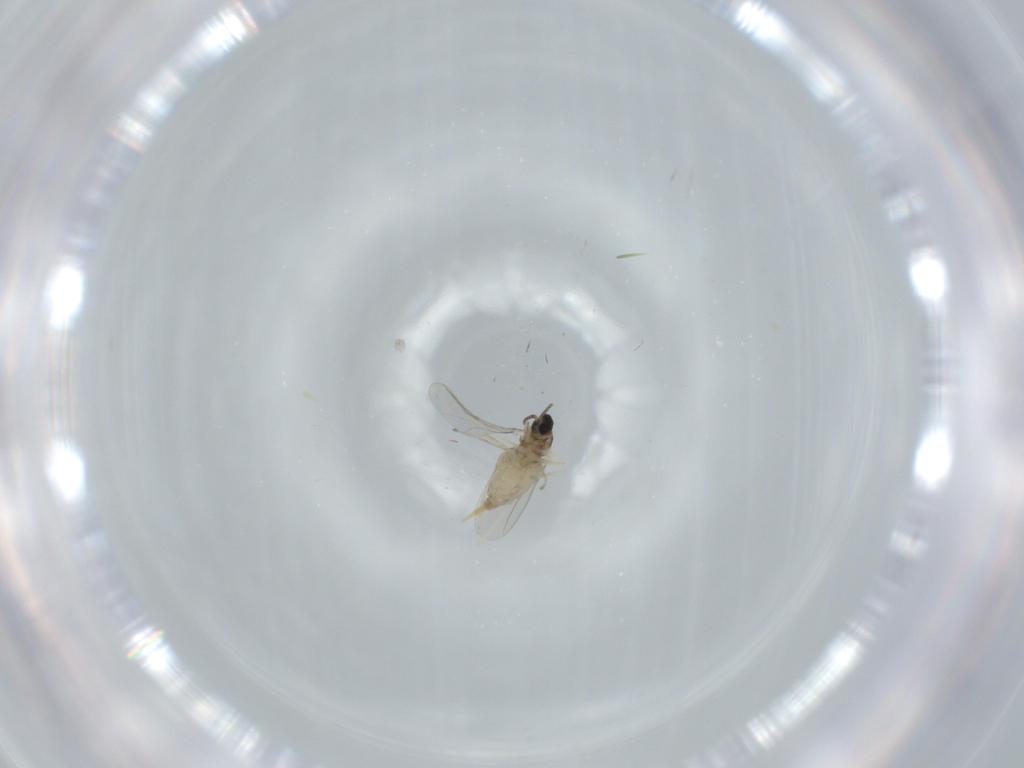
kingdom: Animalia
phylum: Arthropoda
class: Insecta
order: Diptera
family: Cecidomyiidae
